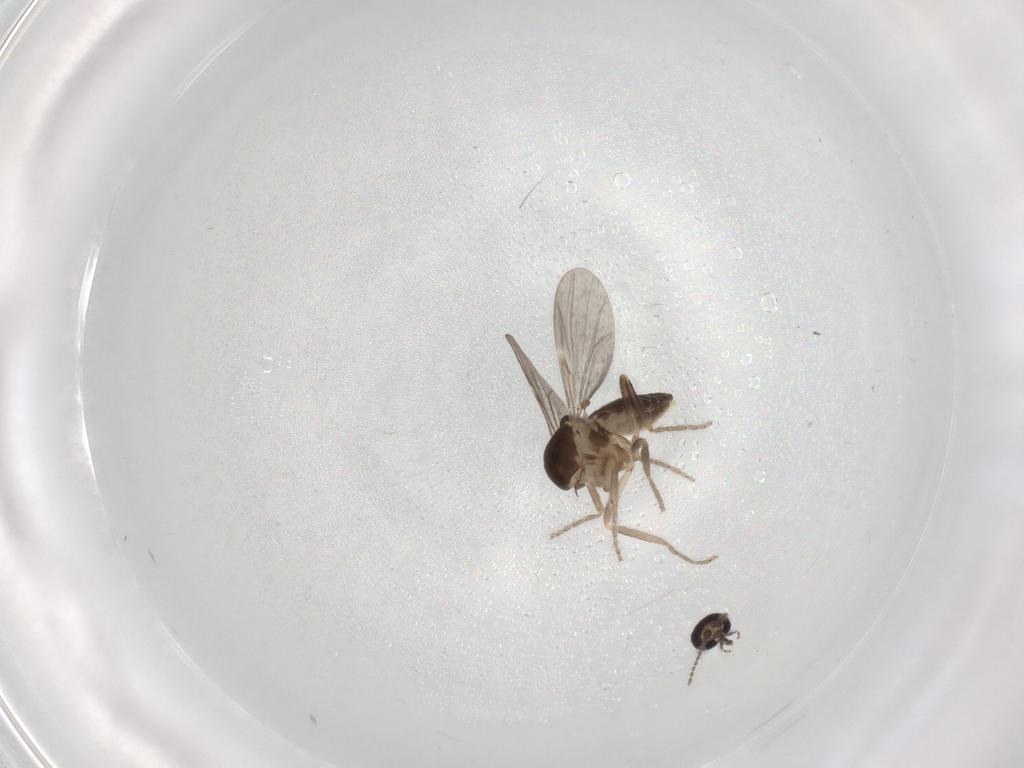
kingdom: Animalia
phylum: Arthropoda
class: Insecta
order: Diptera
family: Ceratopogonidae
